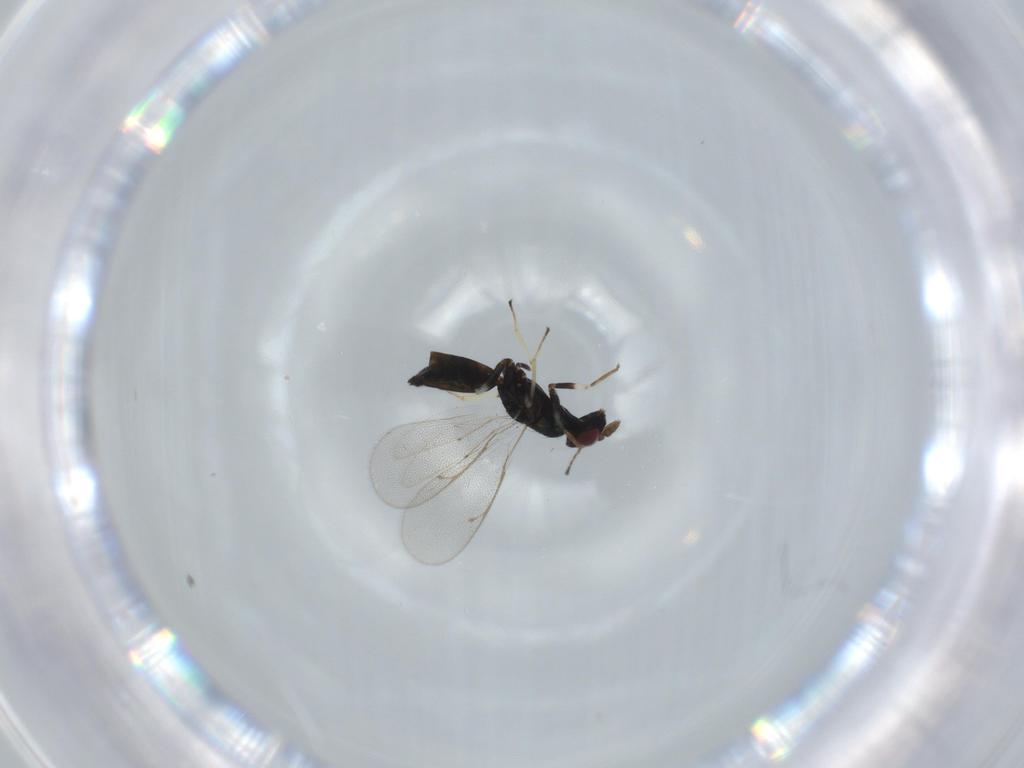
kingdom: Animalia
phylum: Arthropoda
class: Insecta
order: Hymenoptera
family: Eulophidae
